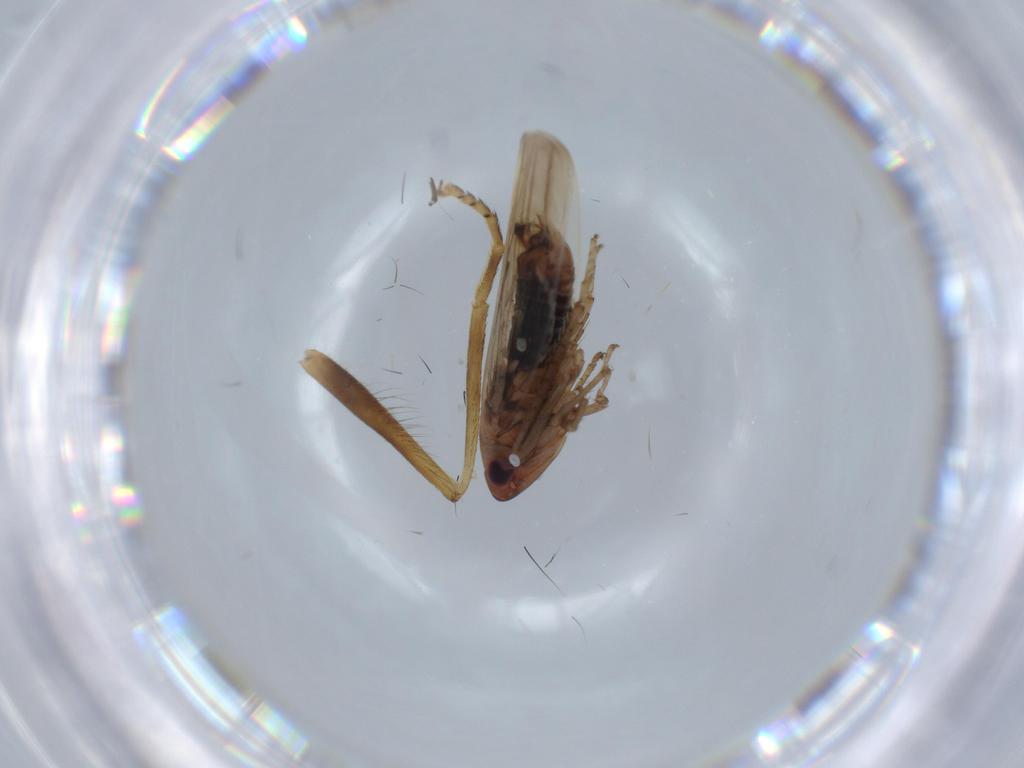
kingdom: Animalia
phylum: Arthropoda
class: Insecta
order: Hemiptera
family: Cicadellidae
